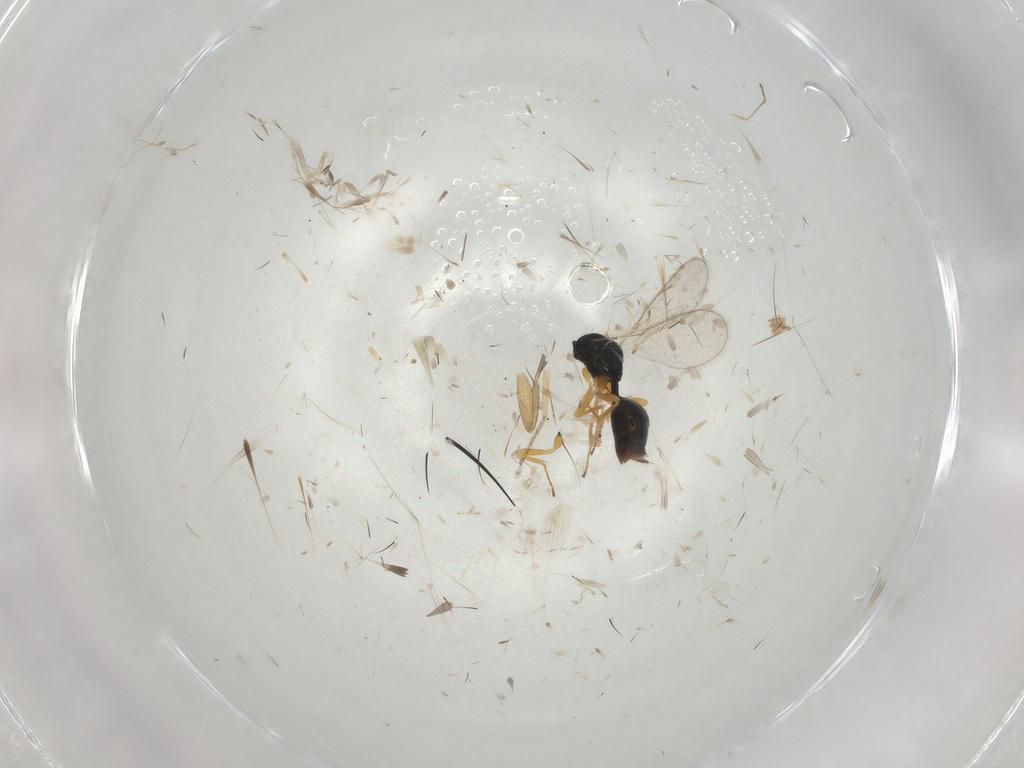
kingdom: Animalia
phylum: Arthropoda
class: Insecta
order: Hymenoptera
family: Pteromalidae
